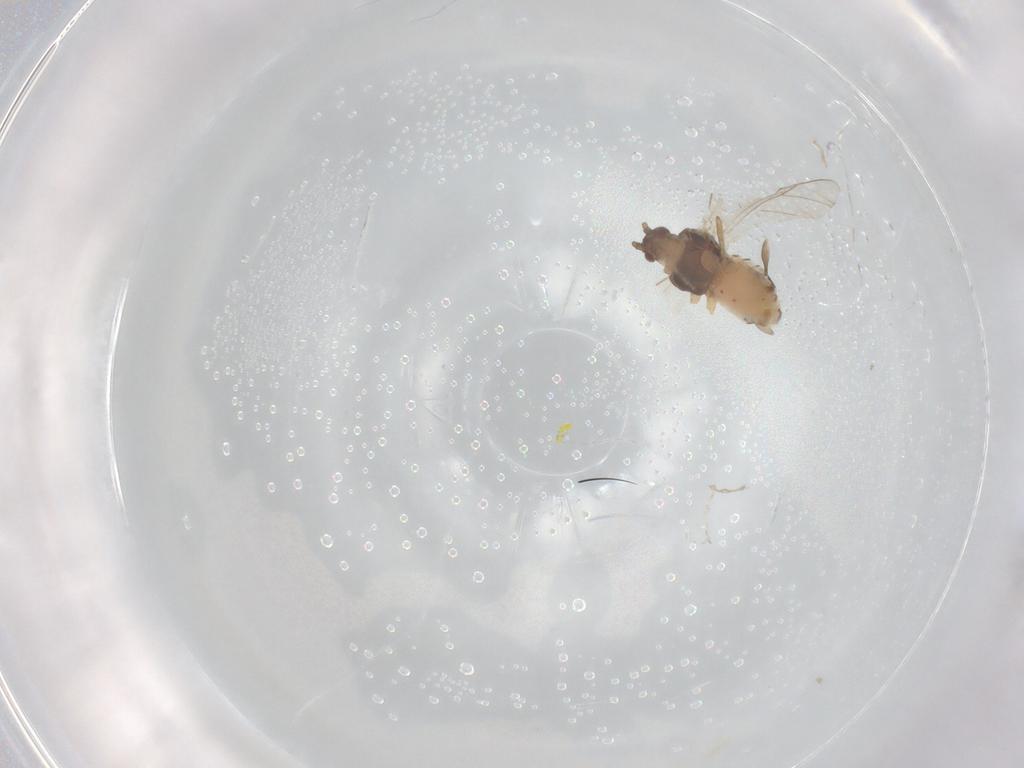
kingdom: Animalia
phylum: Arthropoda
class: Insecta
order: Hemiptera
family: Aphididae
